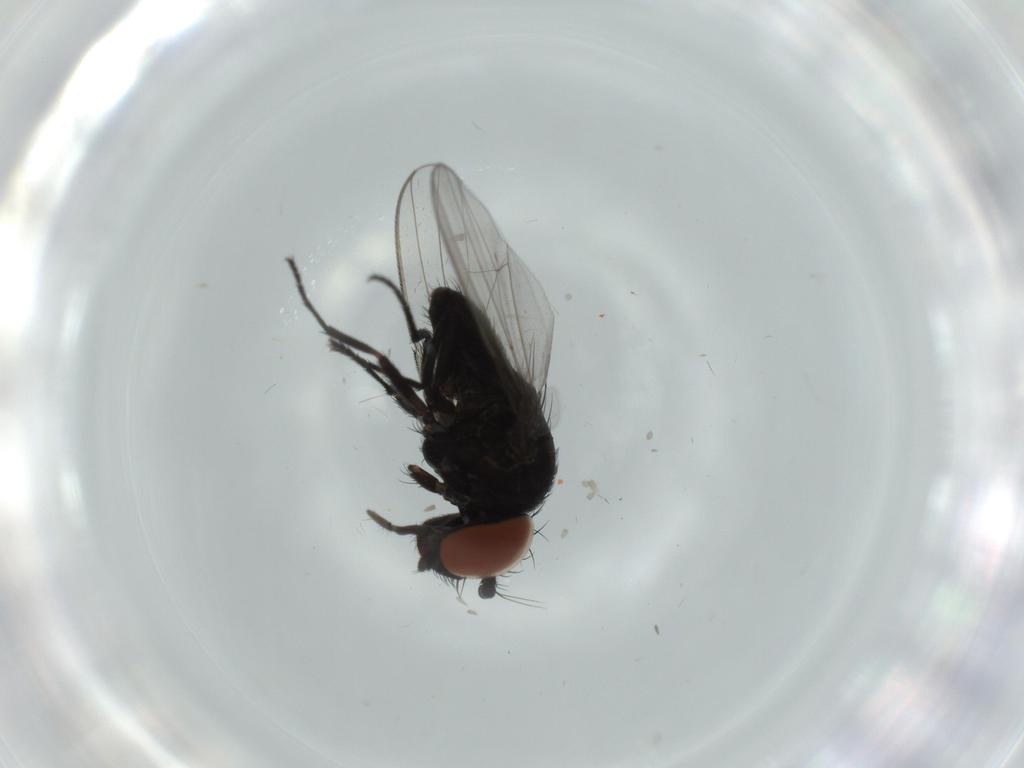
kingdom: Animalia
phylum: Arthropoda
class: Insecta
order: Diptera
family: Milichiidae
